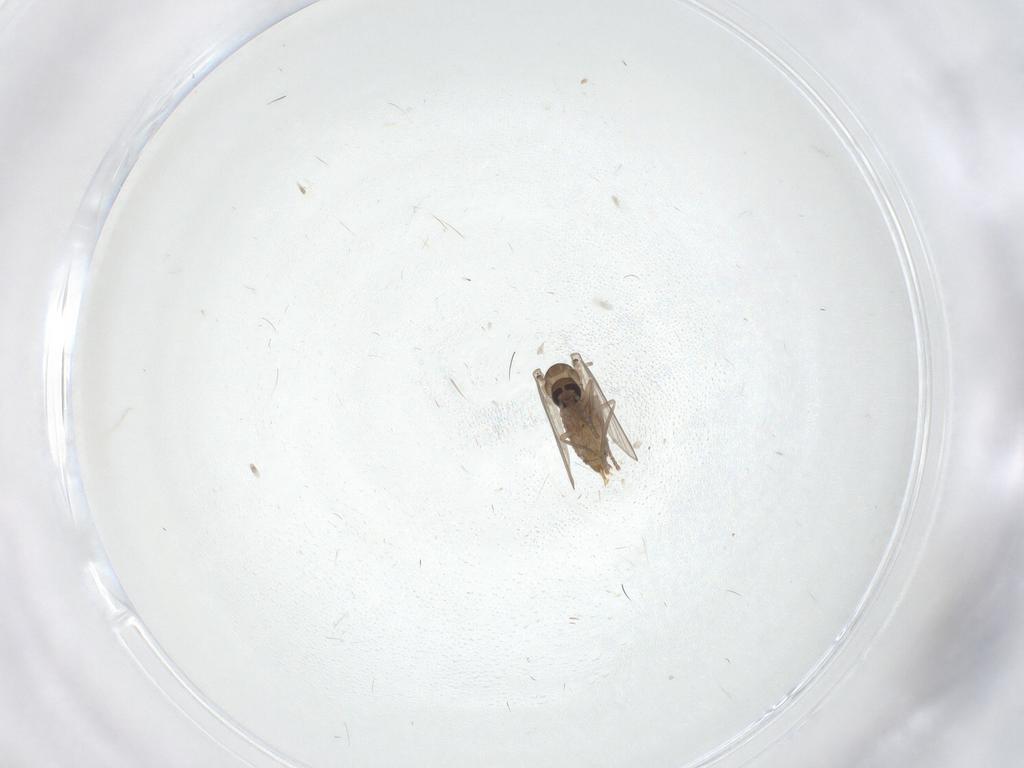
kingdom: Animalia
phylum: Arthropoda
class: Insecta
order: Diptera
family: Psychodidae
